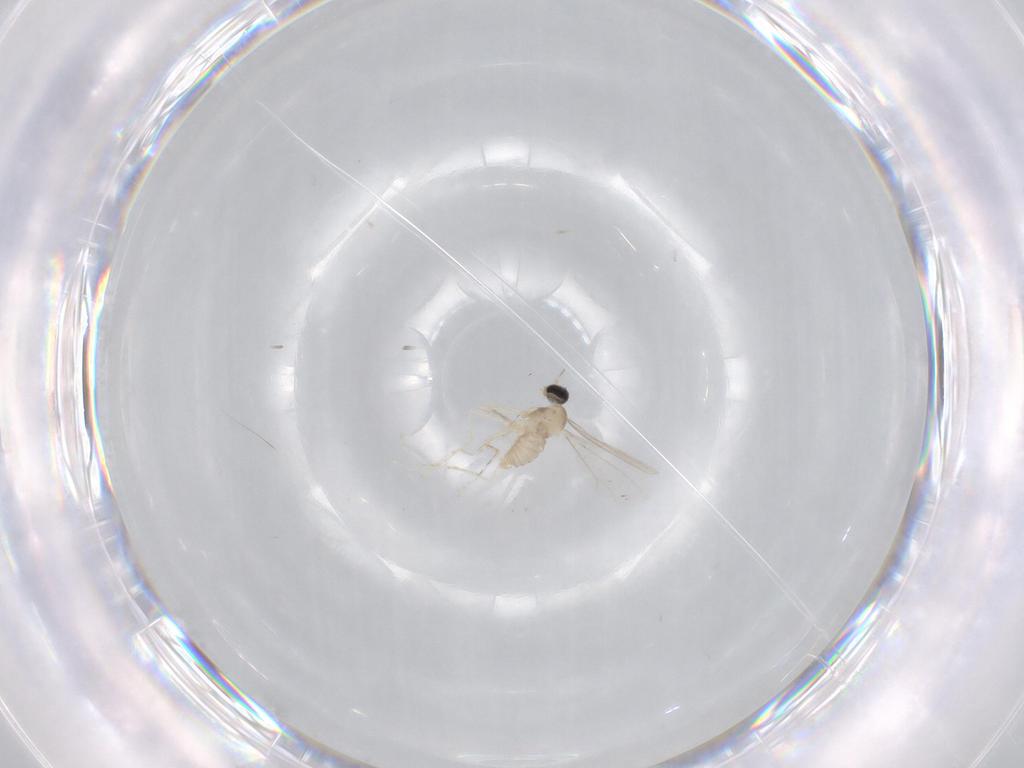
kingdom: Animalia
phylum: Arthropoda
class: Insecta
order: Diptera
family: Cecidomyiidae
